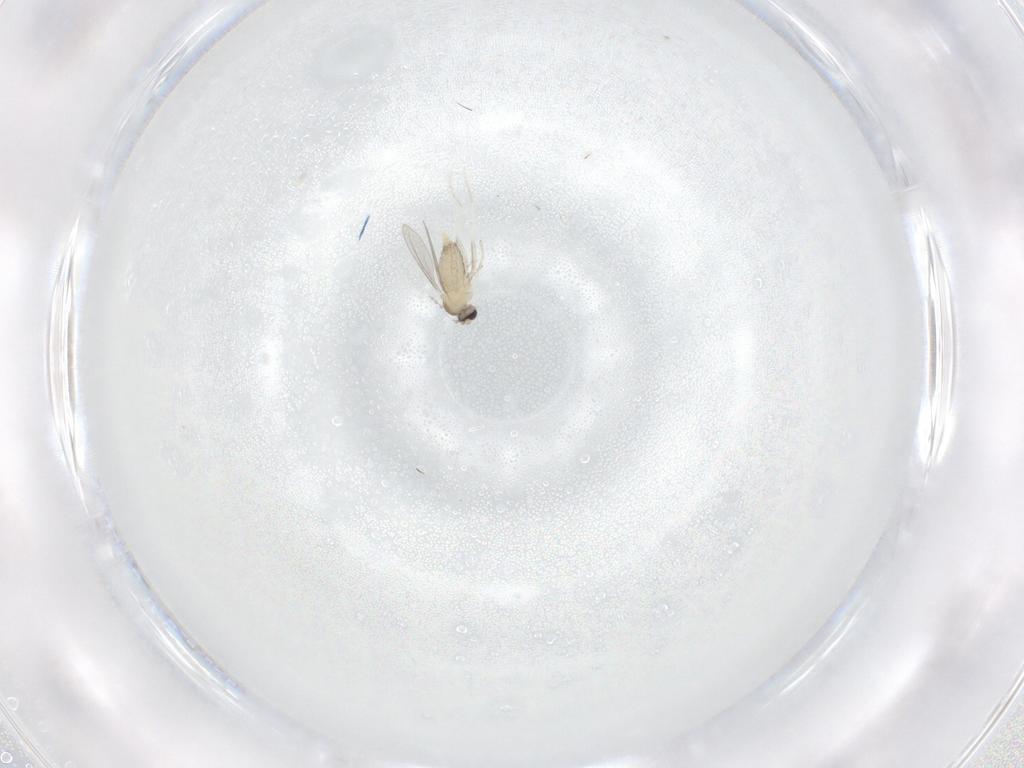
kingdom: Animalia
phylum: Arthropoda
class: Insecta
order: Diptera
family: Cecidomyiidae
